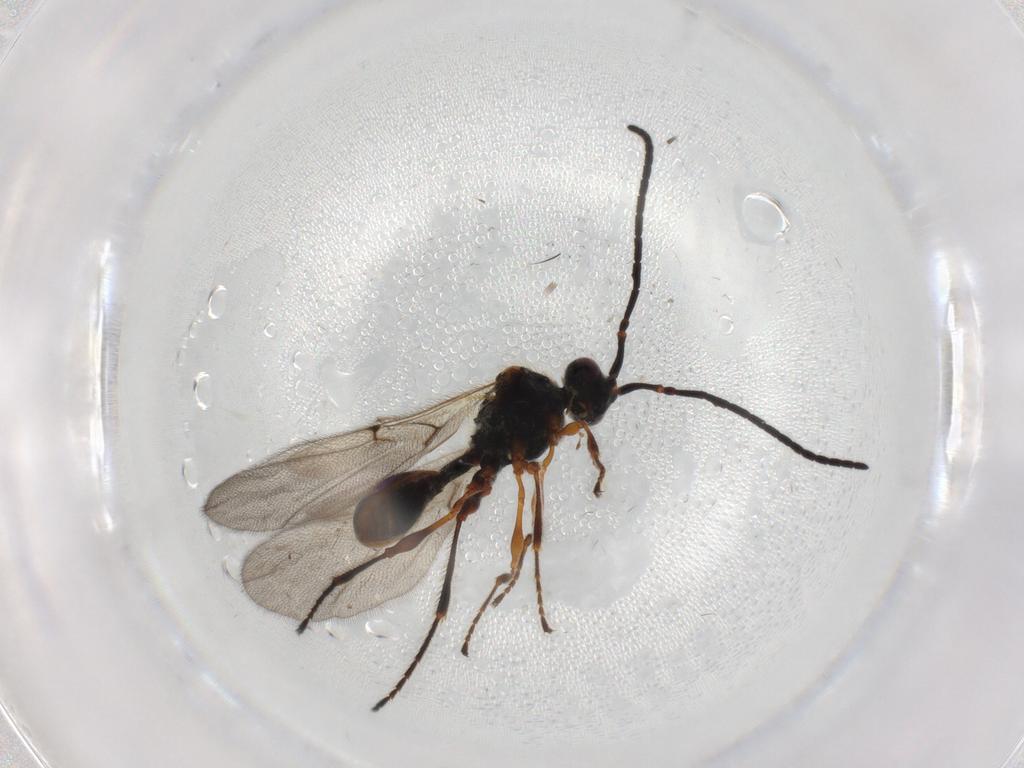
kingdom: Animalia
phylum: Arthropoda
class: Insecta
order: Hymenoptera
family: Diapriidae
